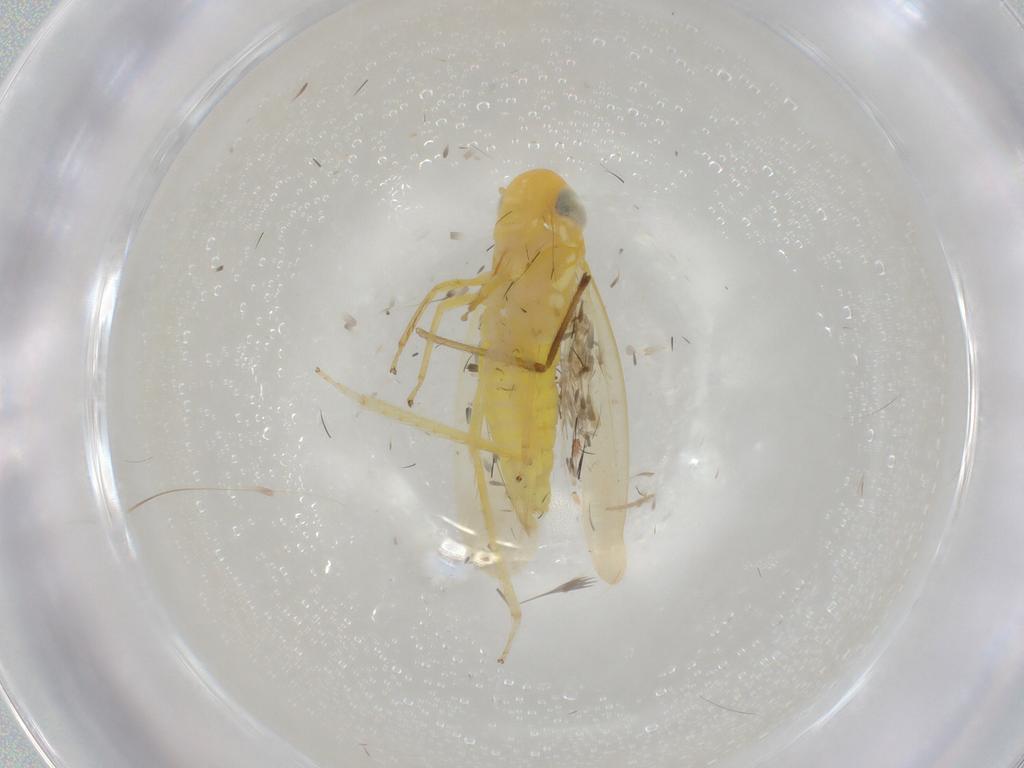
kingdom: Animalia
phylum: Arthropoda
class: Insecta
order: Hemiptera
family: Cicadellidae
